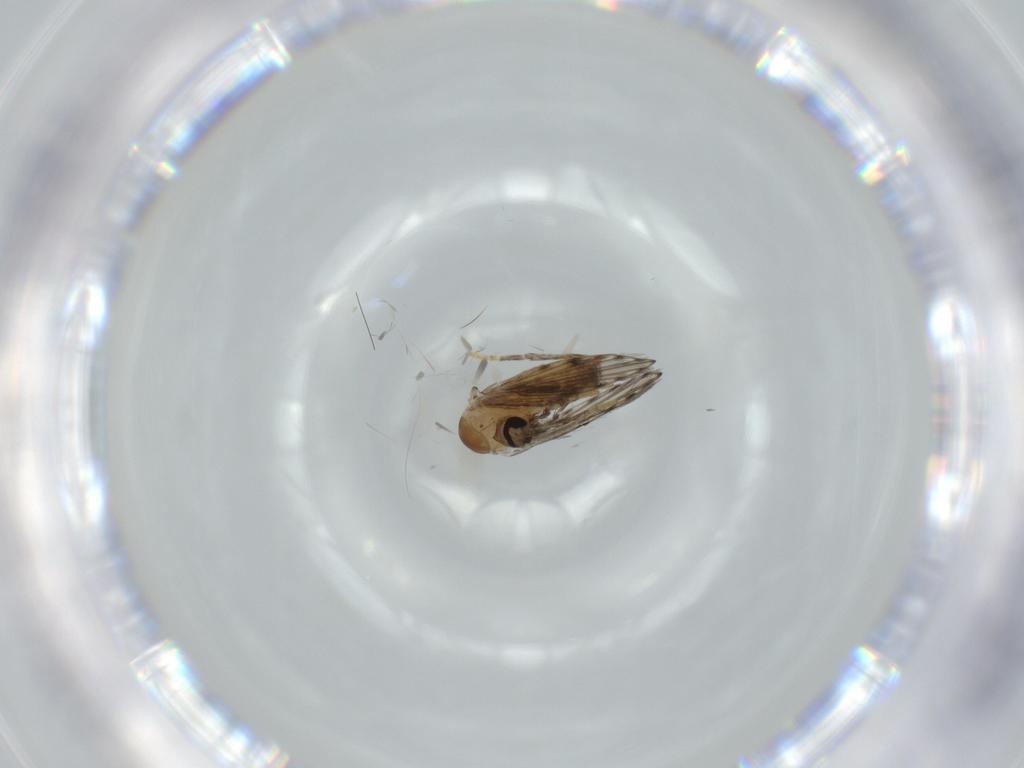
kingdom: Animalia
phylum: Arthropoda
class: Insecta
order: Diptera
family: Psychodidae
